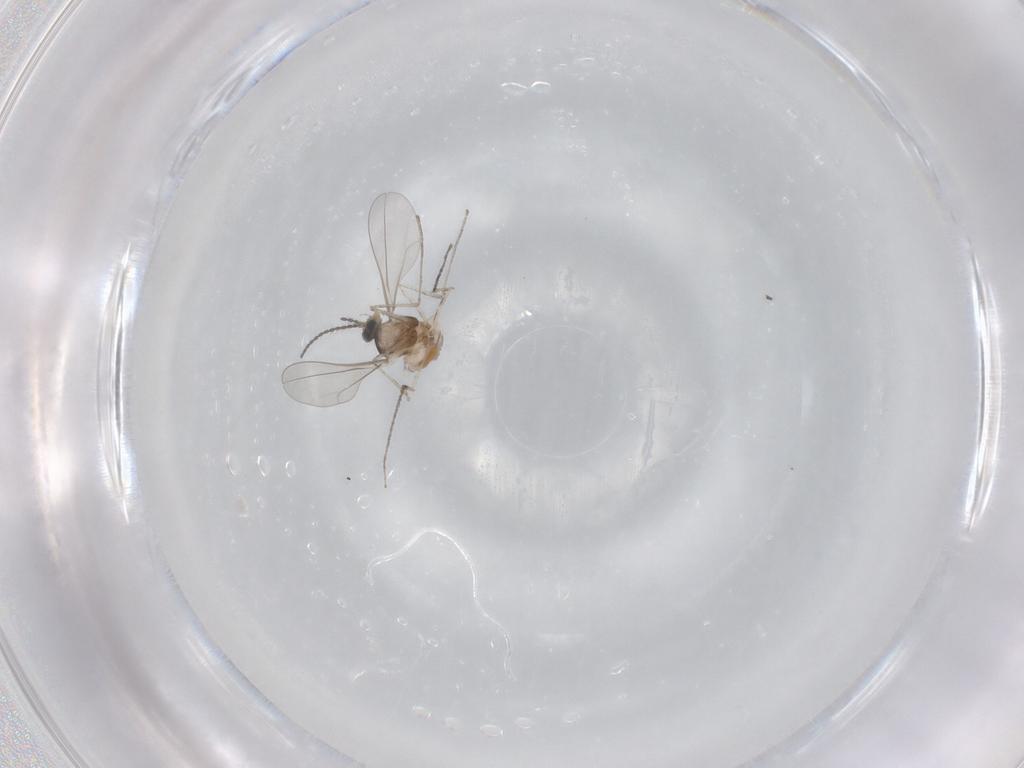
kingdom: Animalia
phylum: Arthropoda
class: Insecta
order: Diptera
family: Cecidomyiidae
